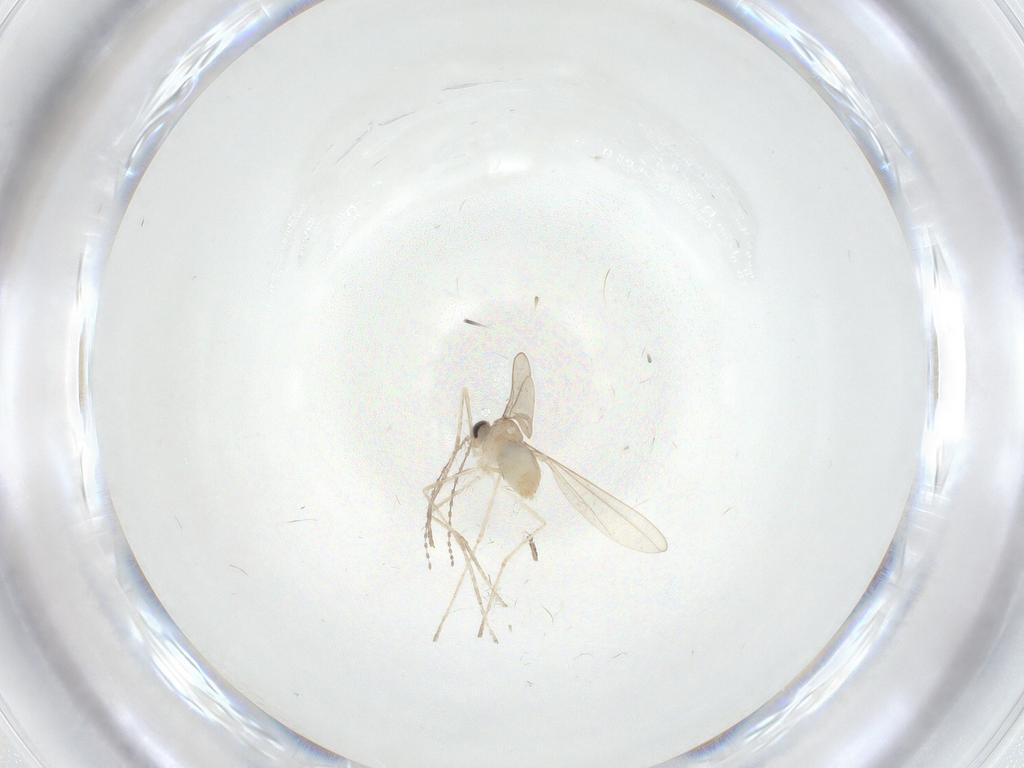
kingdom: Animalia
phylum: Arthropoda
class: Insecta
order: Diptera
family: Cecidomyiidae
